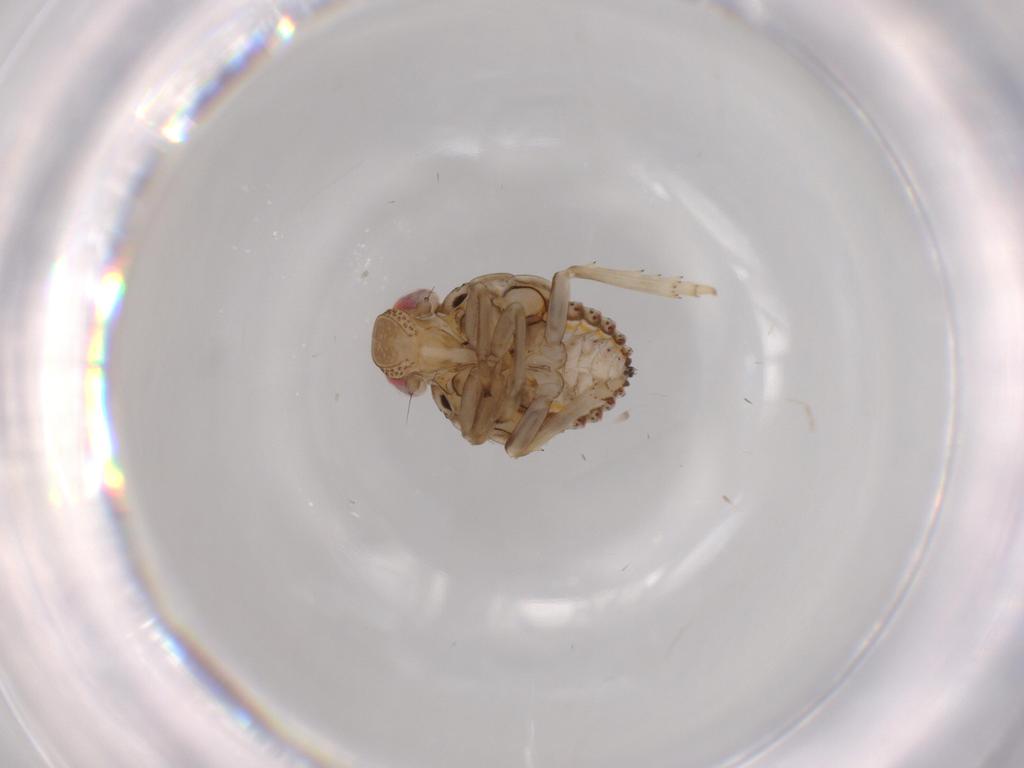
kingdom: Animalia
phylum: Arthropoda
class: Insecta
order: Hemiptera
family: Issidae
